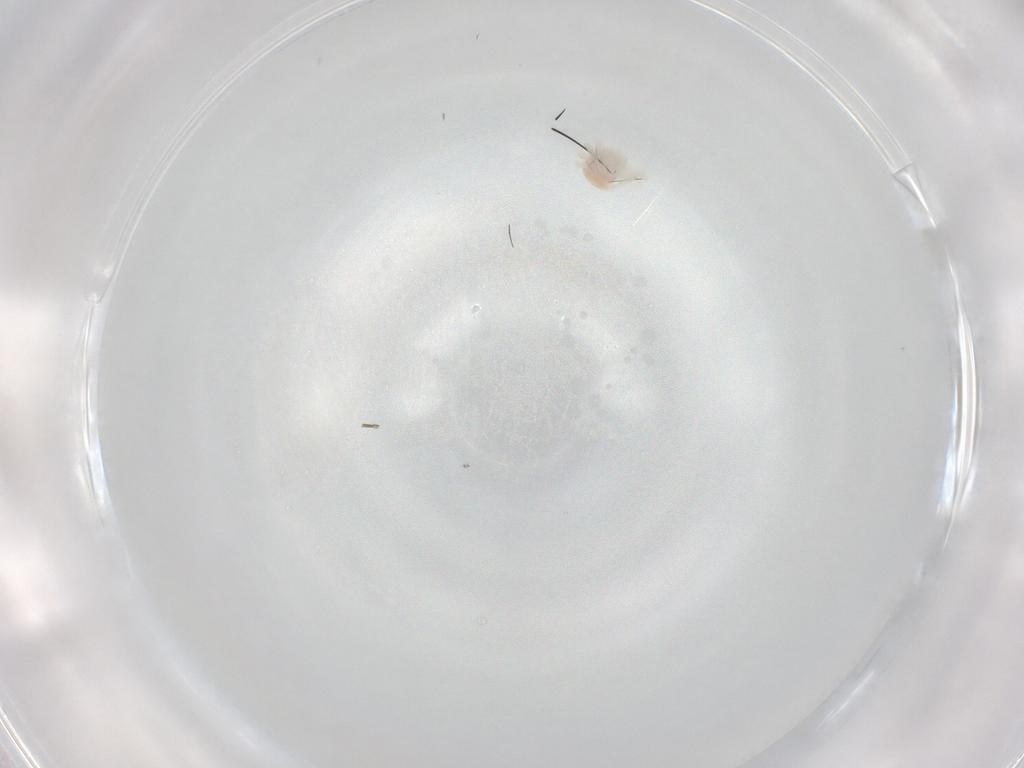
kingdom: Animalia
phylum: Arthropoda
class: Arachnida
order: Trombidiformes
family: Anystidae
